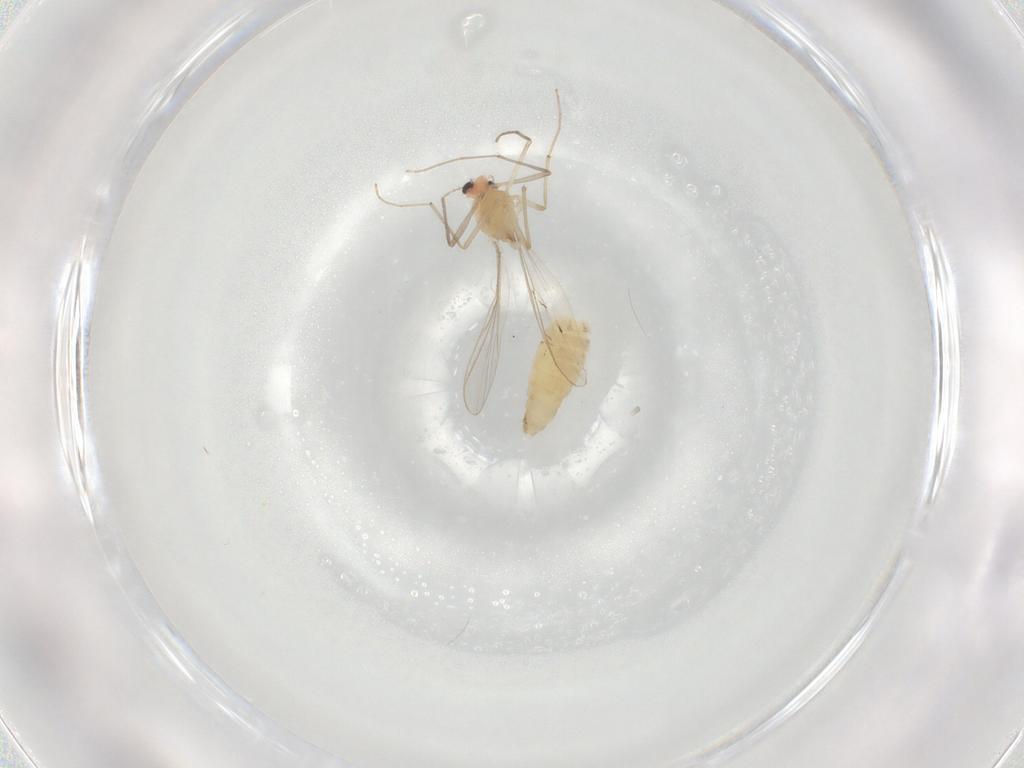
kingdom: Animalia
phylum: Arthropoda
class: Insecta
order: Diptera
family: Chironomidae
